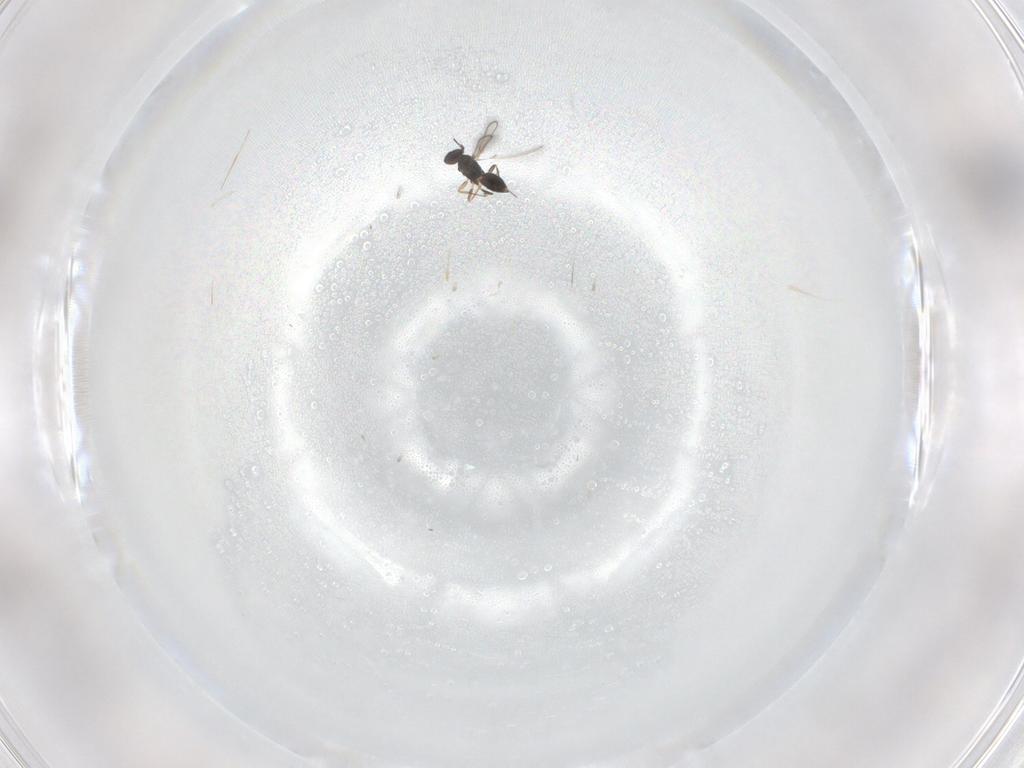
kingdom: Animalia
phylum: Arthropoda
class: Insecta
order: Hymenoptera
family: Mymaridae
